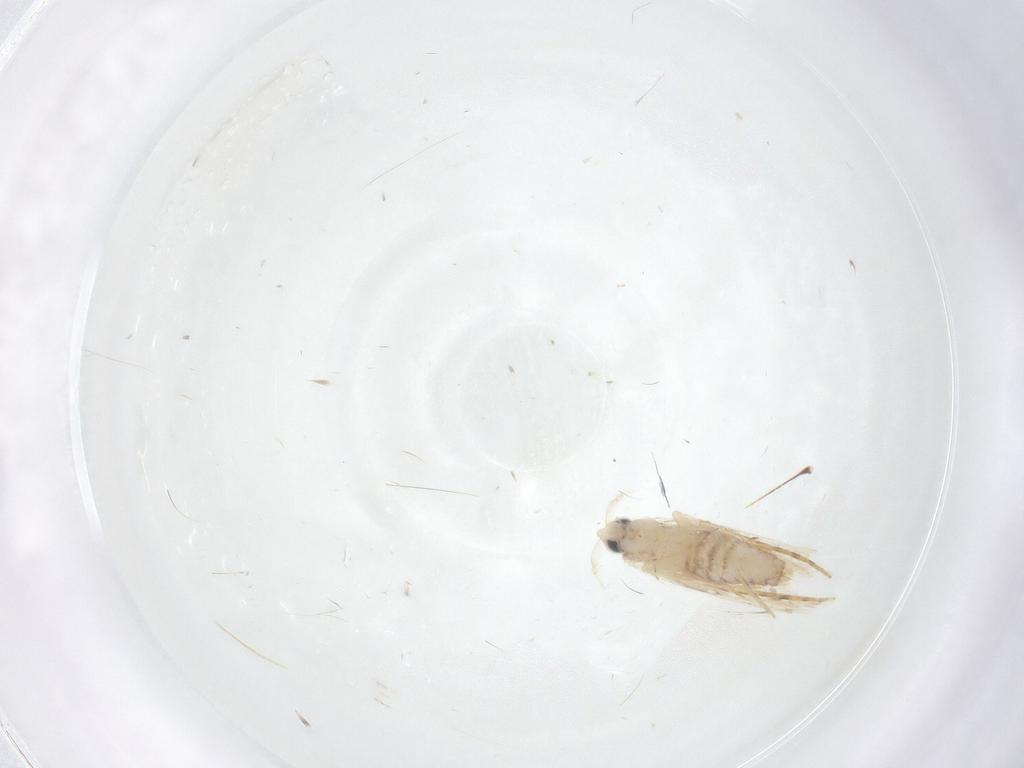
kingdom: Animalia
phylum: Arthropoda
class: Insecta
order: Lepidoptera
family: Tineidae
